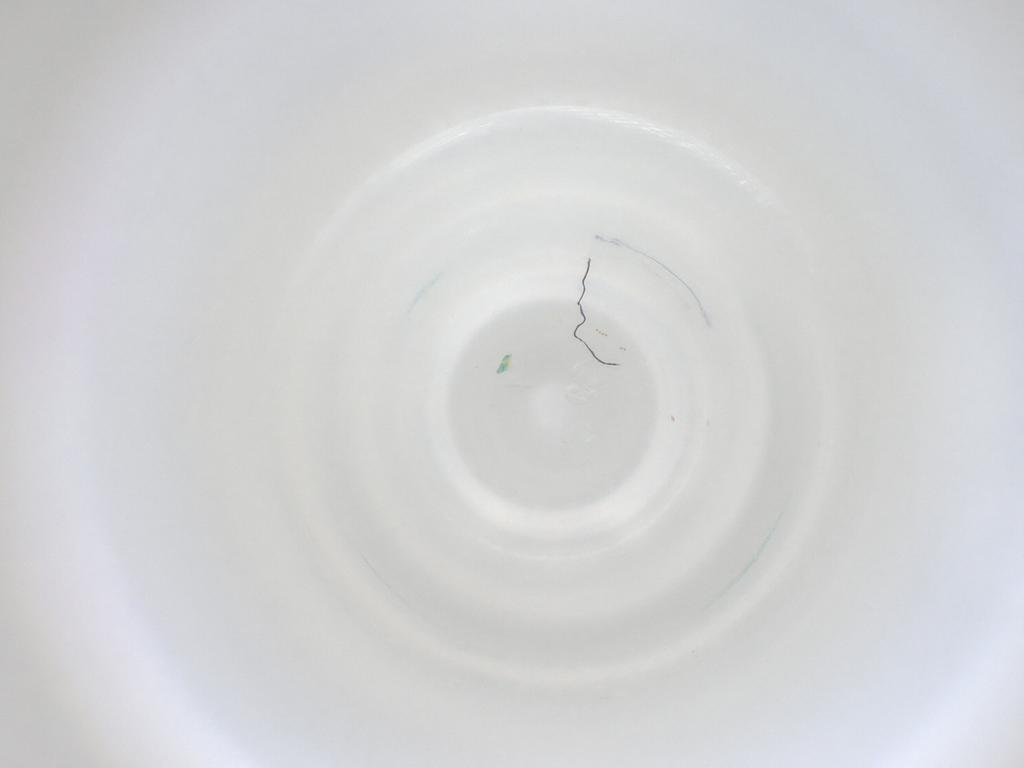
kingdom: Animalia
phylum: Arthropoda
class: Insecta
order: Diptera
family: Cecidomyiidae
